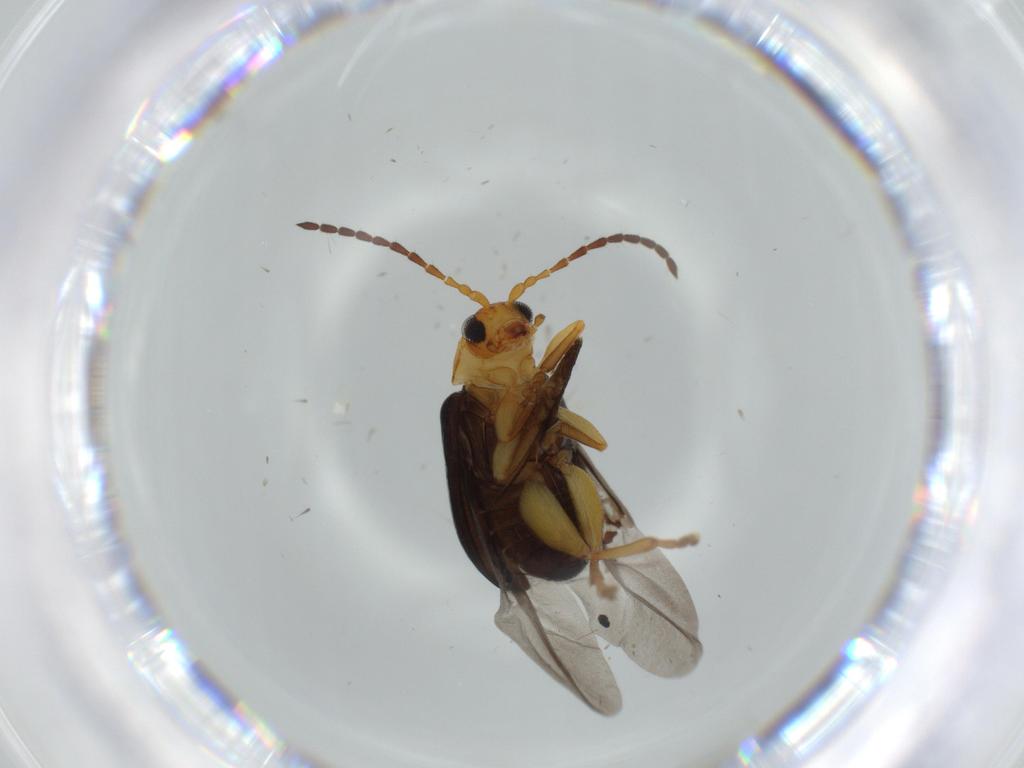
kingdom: Animalia
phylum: Arthropoda
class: Insecta
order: Coleoptera
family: Chrysomelidae
